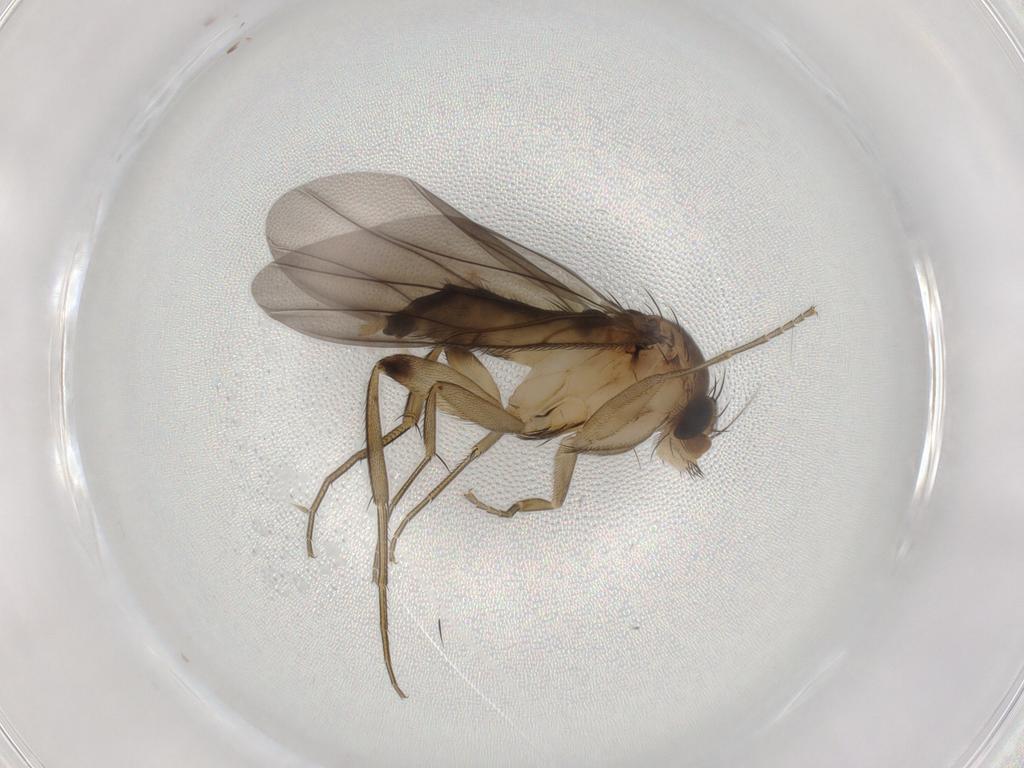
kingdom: Animalia
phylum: Arthropoda
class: Insecta
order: Diptera
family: Phoridae
